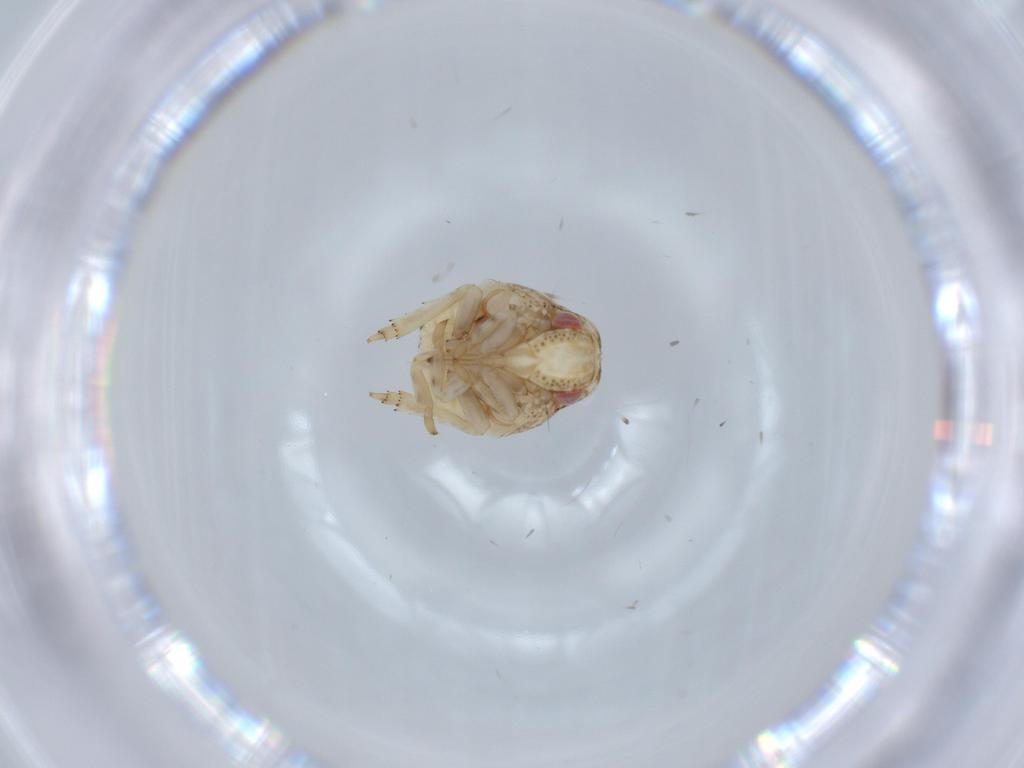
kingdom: Animalia
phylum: Arthropoda
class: Insecta
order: Hemiptera
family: Acanaloniidae
